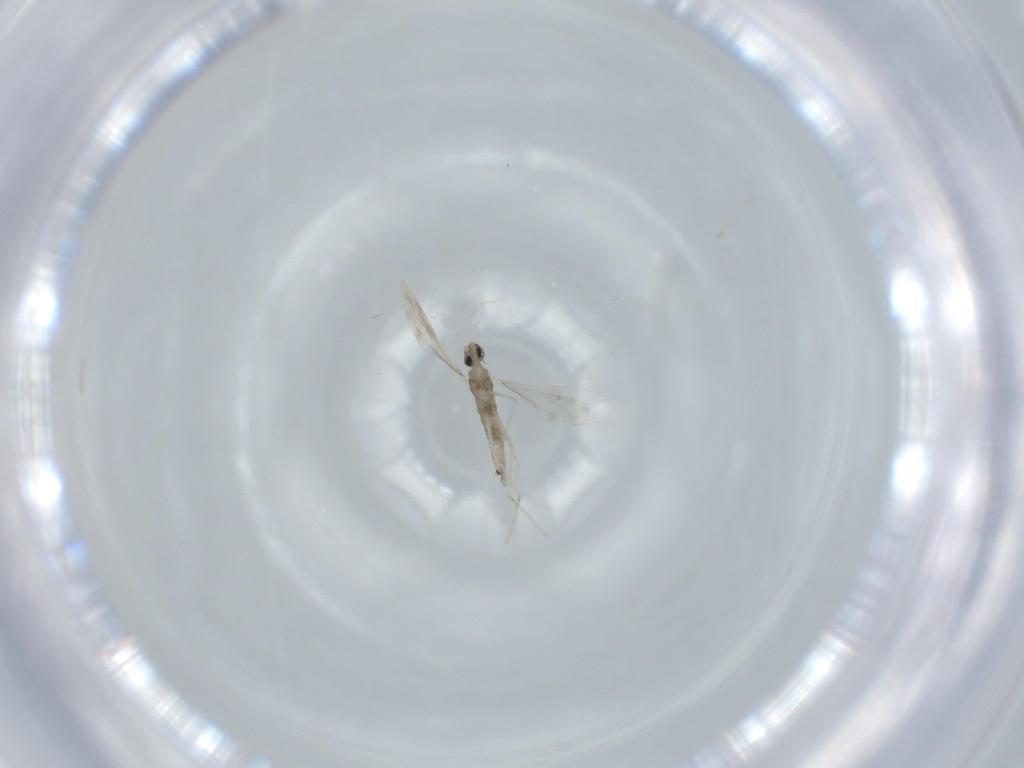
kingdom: Animalia
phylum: Arthropoda
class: Insecta
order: Diptera
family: Cecidomyiidae
